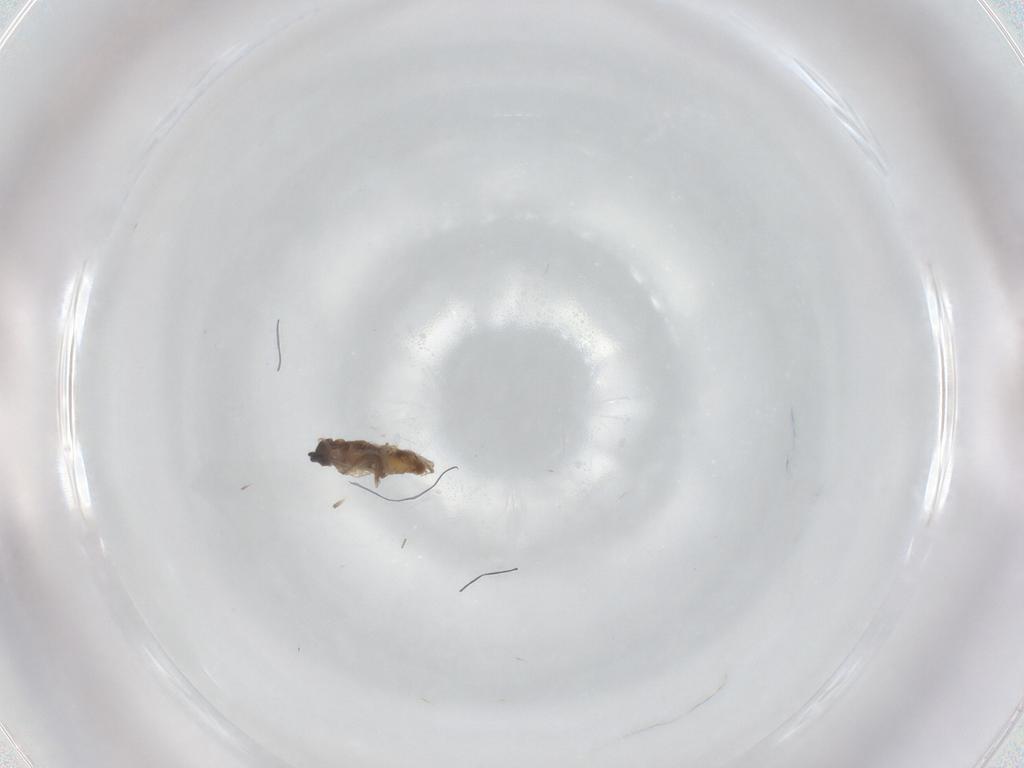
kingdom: Animalia
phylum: Arthropoda
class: Insecta
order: Diptera
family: Cecidomyiidae
